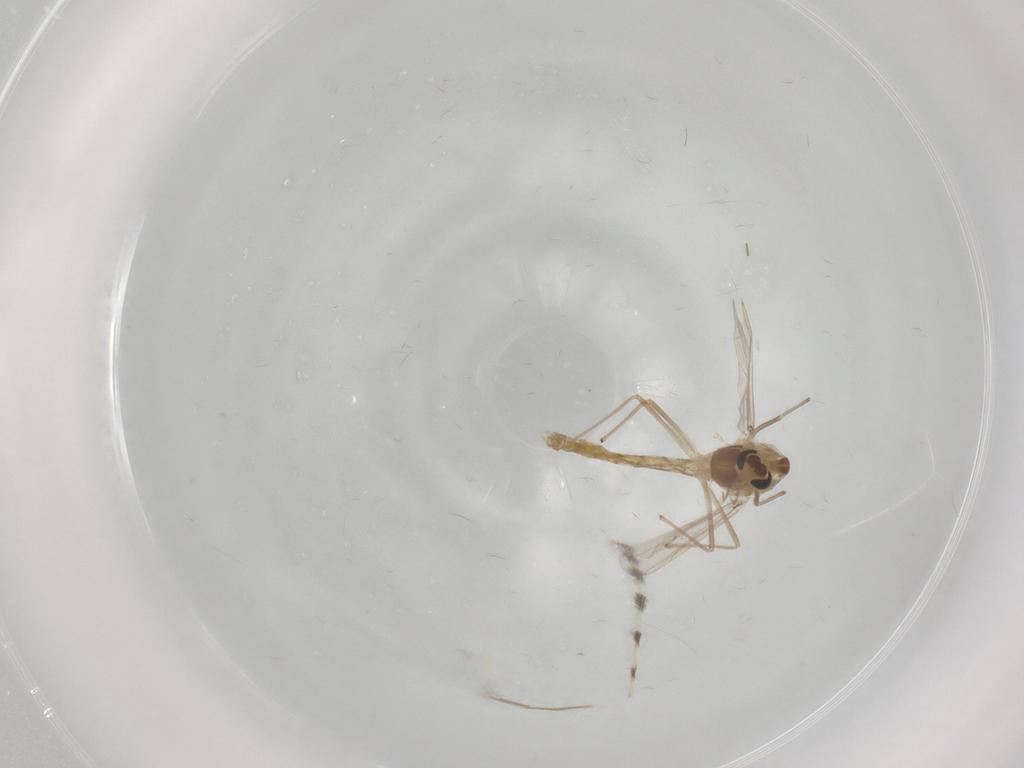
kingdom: Animalia
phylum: Arthropoda
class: Insecta
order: Diptera
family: Chironomidae
